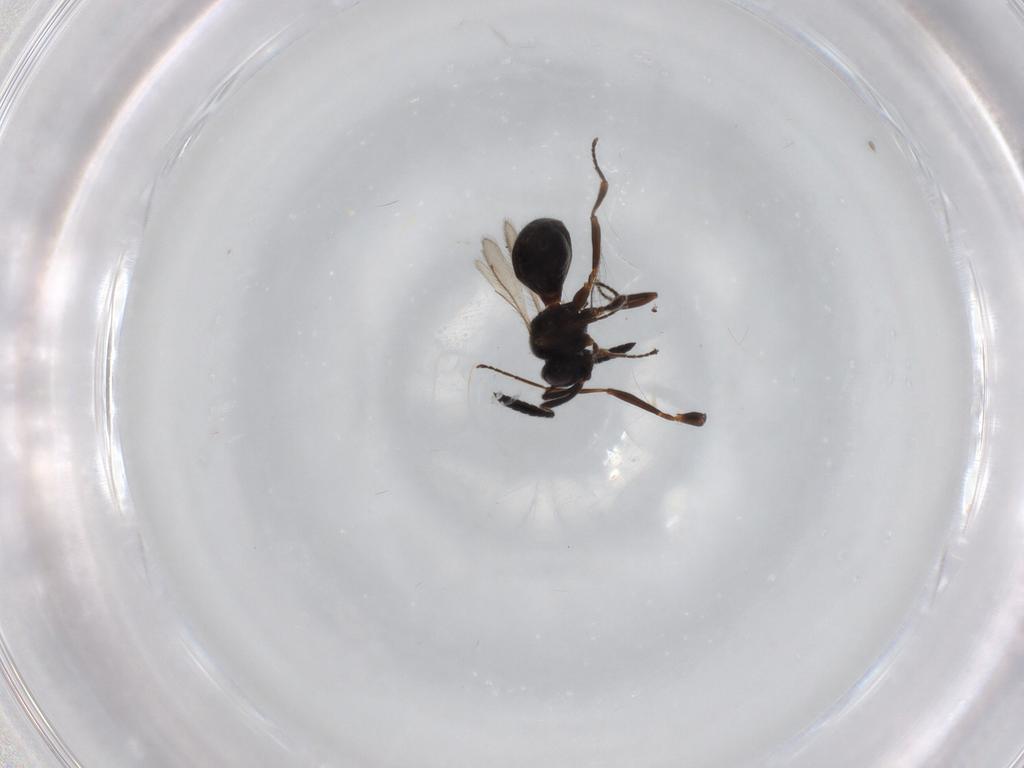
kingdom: Animalia
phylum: Arthropoda
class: Insecta
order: Hymenoptera
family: Scelionidae
